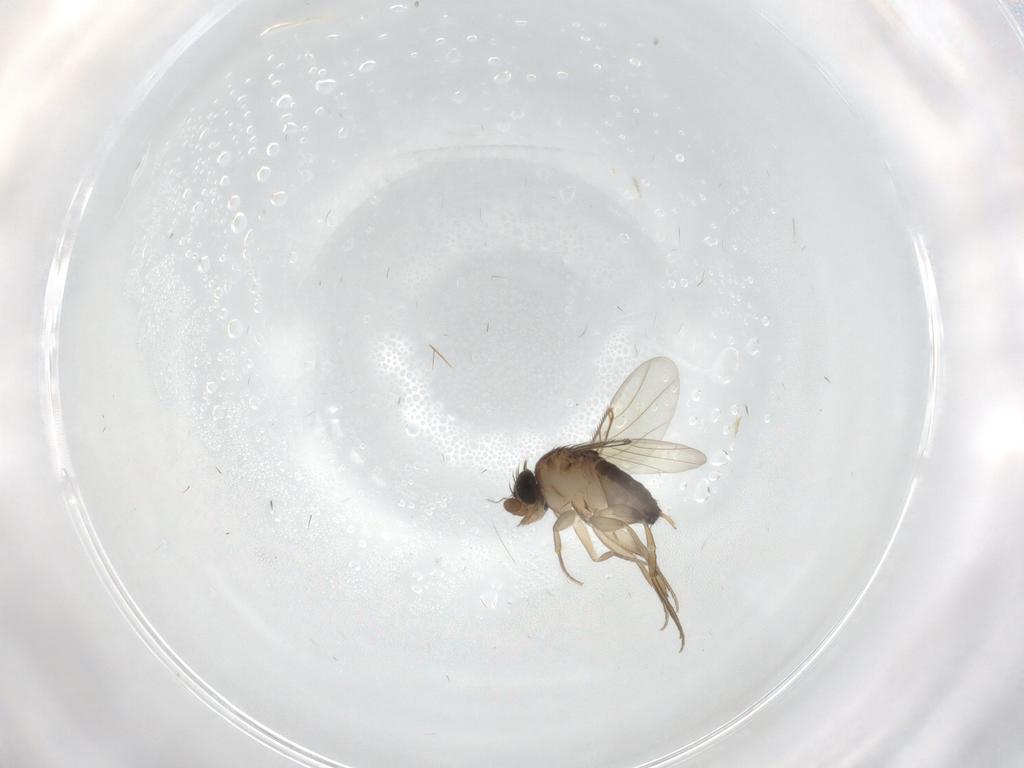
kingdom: Animalia
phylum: Arthropoda
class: Insecta
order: Diptera
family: Phoridae
